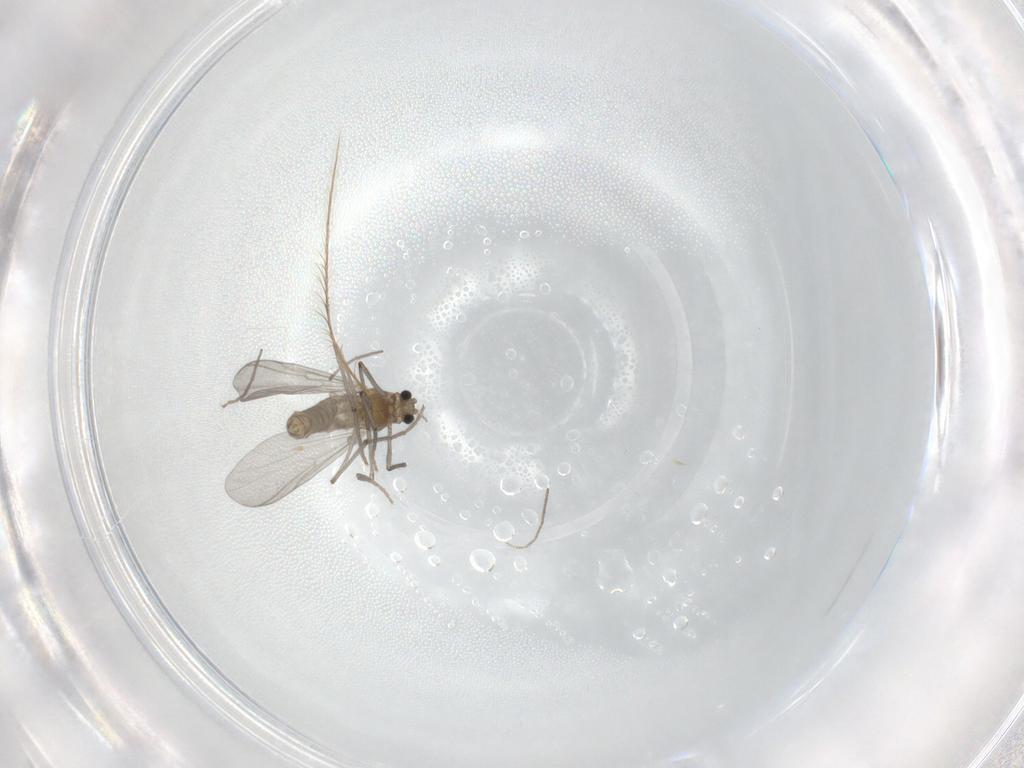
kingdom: Animalia
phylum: Arthropoda
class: Insecta
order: Diptera
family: Chironomidae
